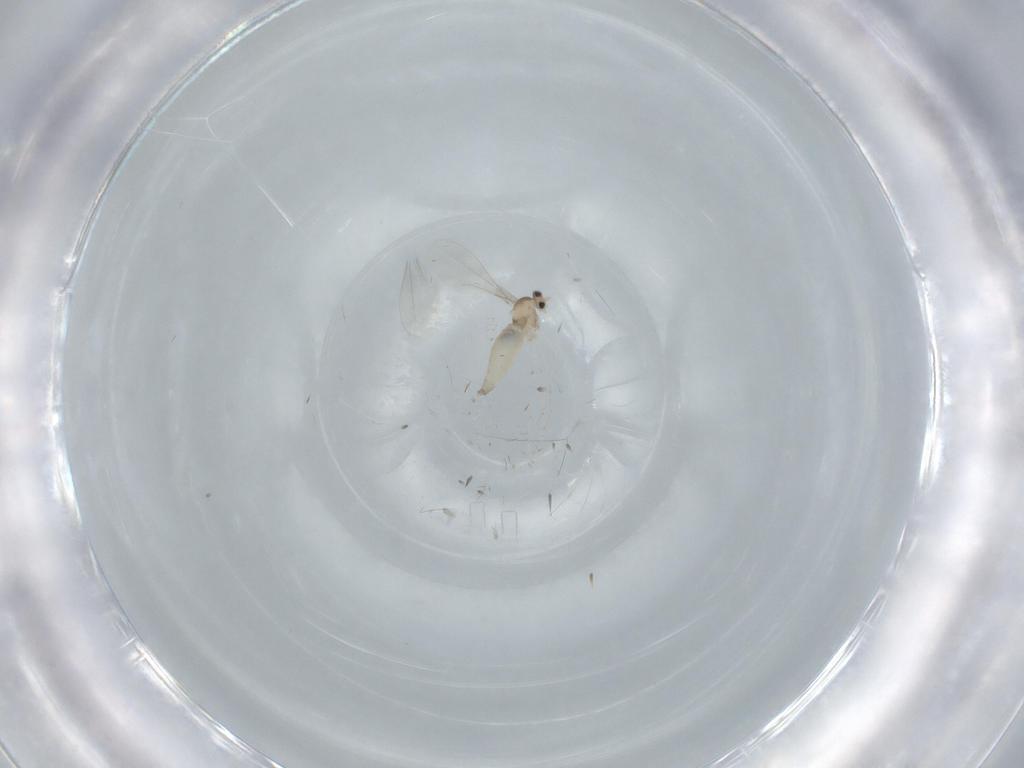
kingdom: Animalia
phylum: Arthropoda
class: Insecta
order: Diptera
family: Cecidomyiidae
